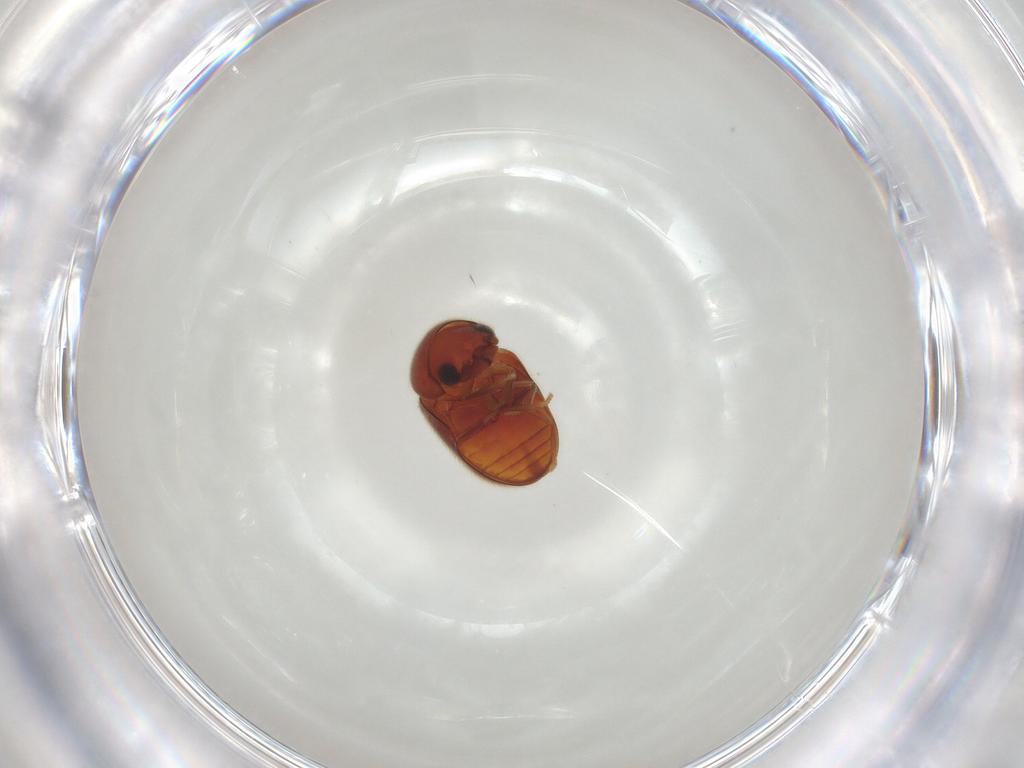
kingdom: Animalia
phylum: Arthropoda
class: Insecta
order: Coleoptera
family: Ptinidae
